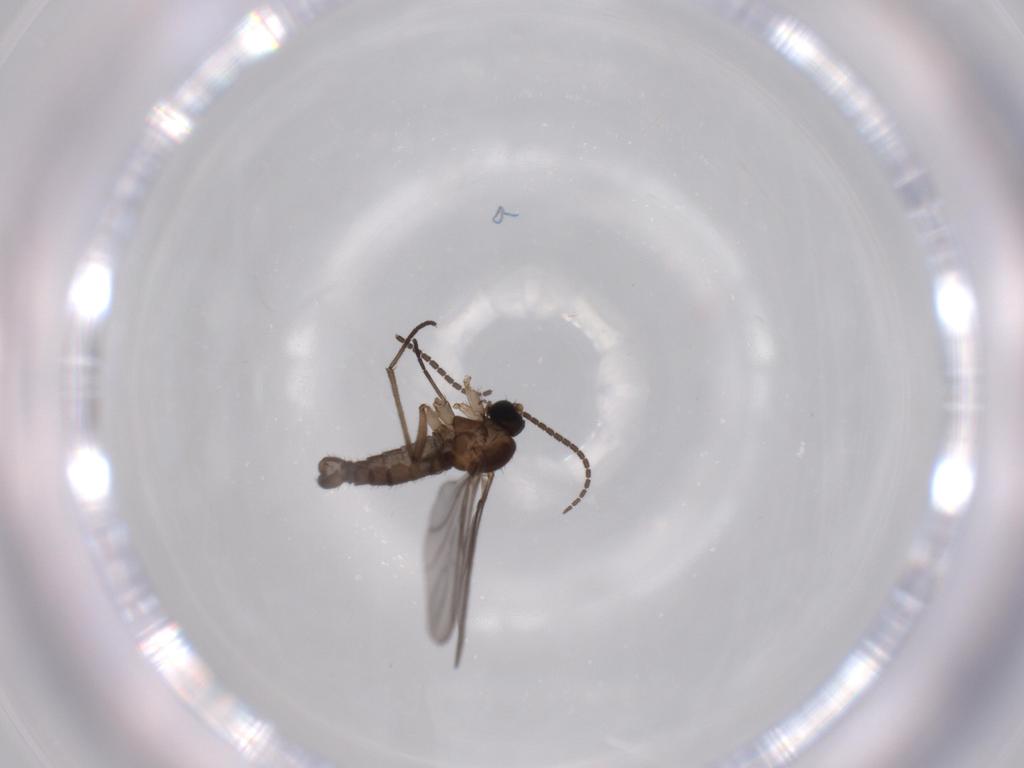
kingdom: Animalia
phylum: Arthropoda
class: Insecta
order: Diptera
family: Sciaridae
